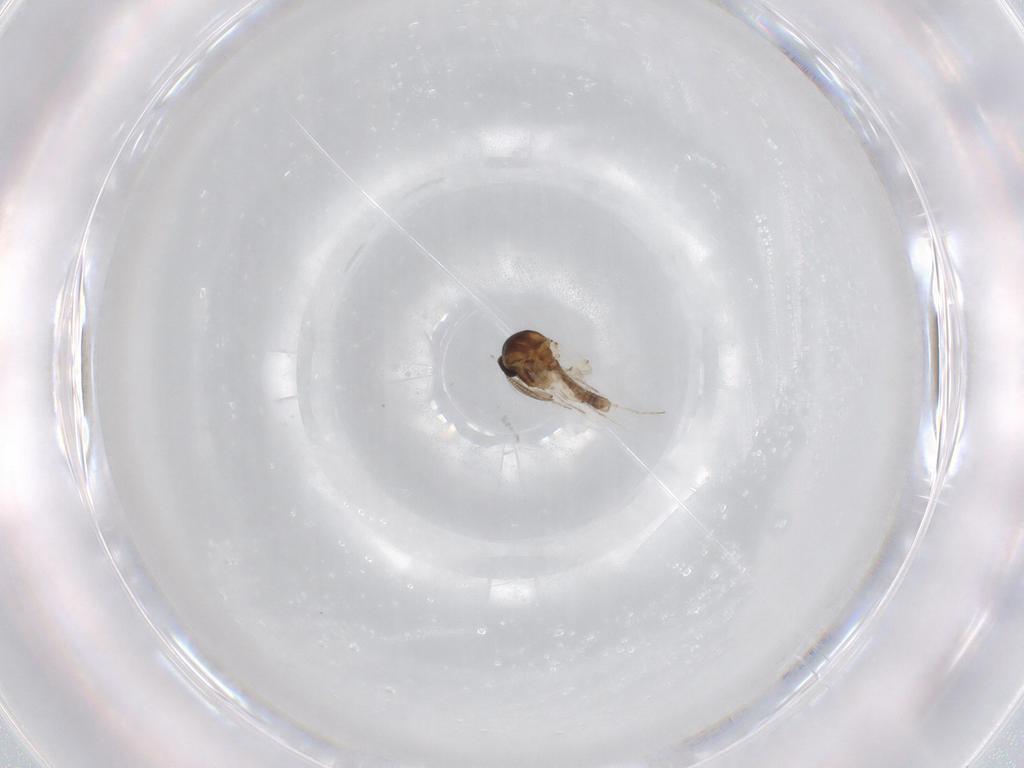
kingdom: Animalia
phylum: Arthropoda
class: Insecta
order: Diptera
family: Ceratopogonidae
